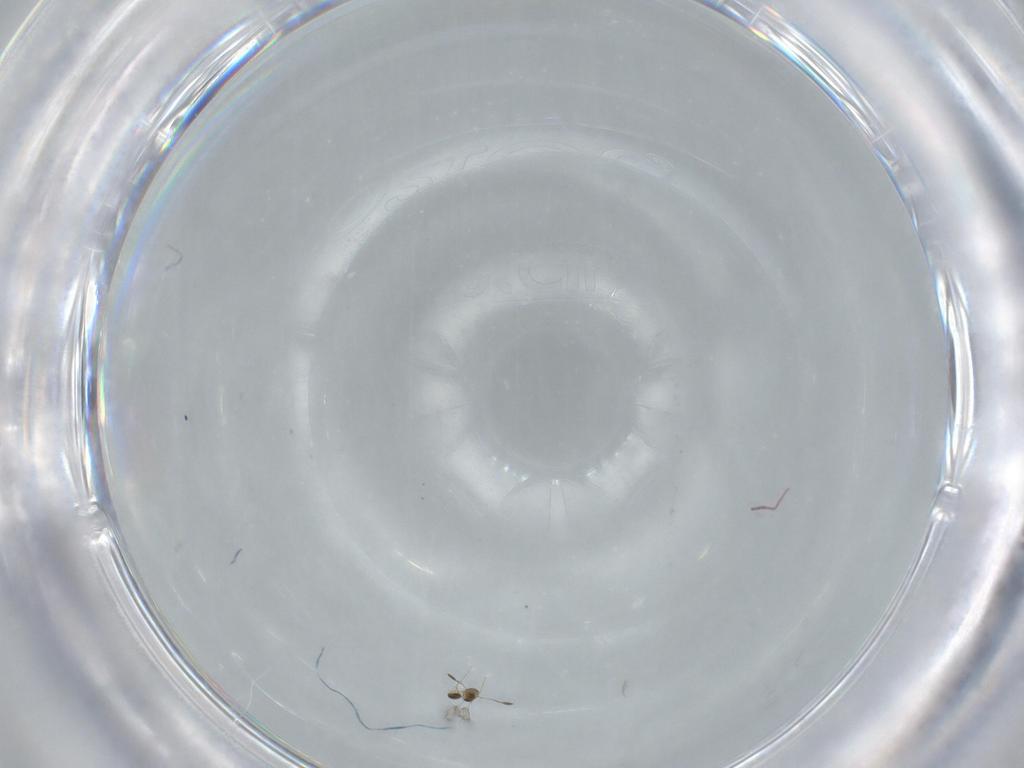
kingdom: Animalia
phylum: Arthropoda
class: Insecta
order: Hymenoptera
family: Mymarommatidae
